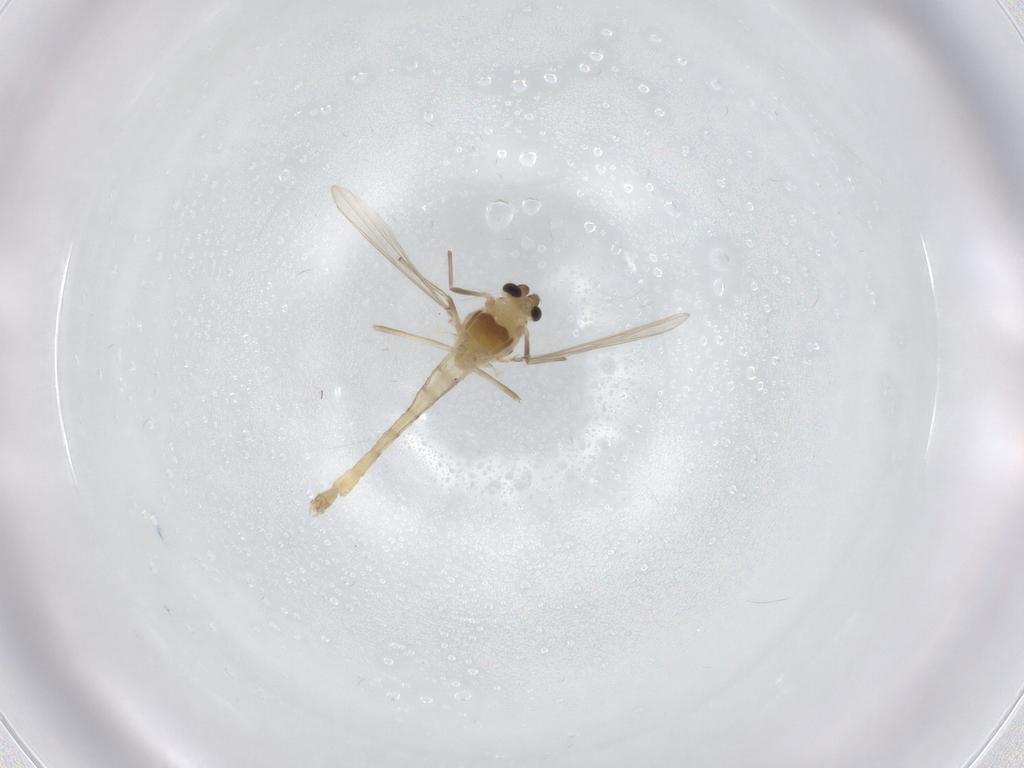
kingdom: Animalia
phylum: Arthropoda
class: Insecta
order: Diptera
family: Chironomidae
